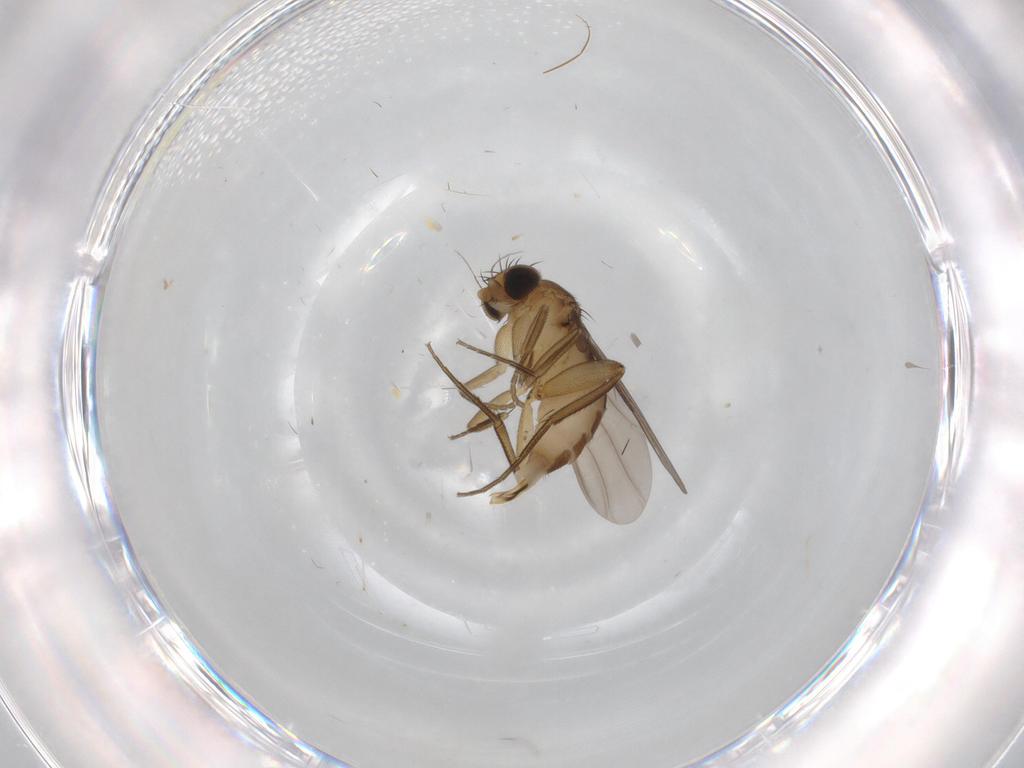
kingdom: Animalia
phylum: Arthropoda
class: Insecta
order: Diptera
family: Phoridae
